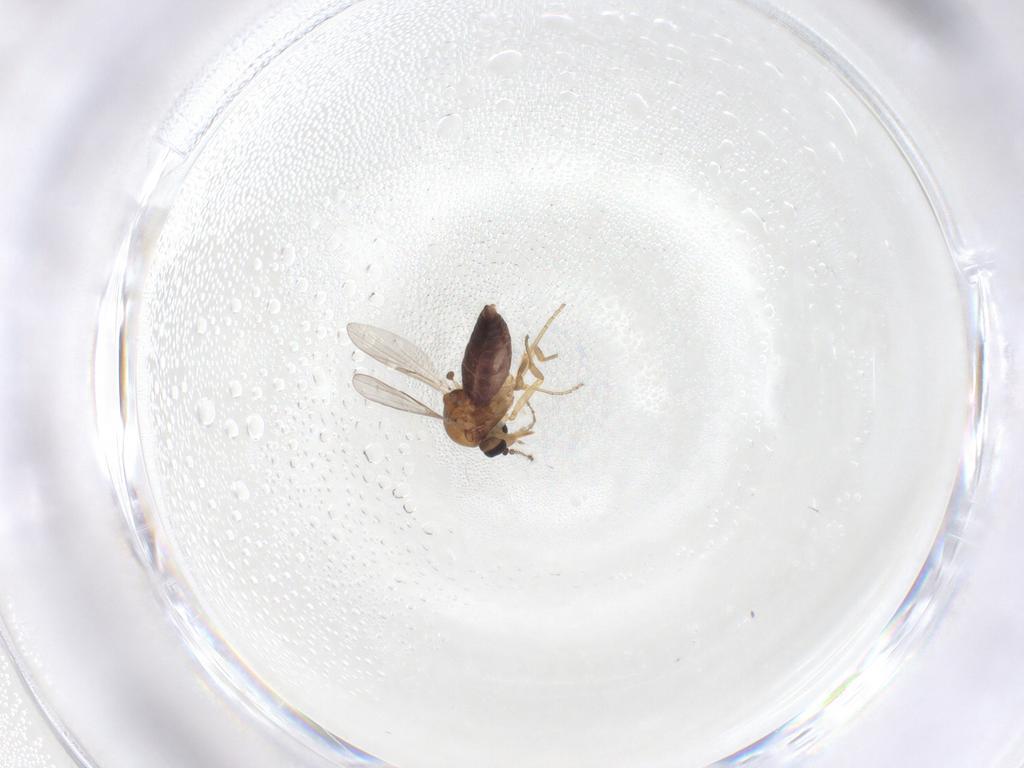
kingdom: Animalia
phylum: Arthropoda
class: Insecta
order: Diptera
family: Ceratopogonidae
